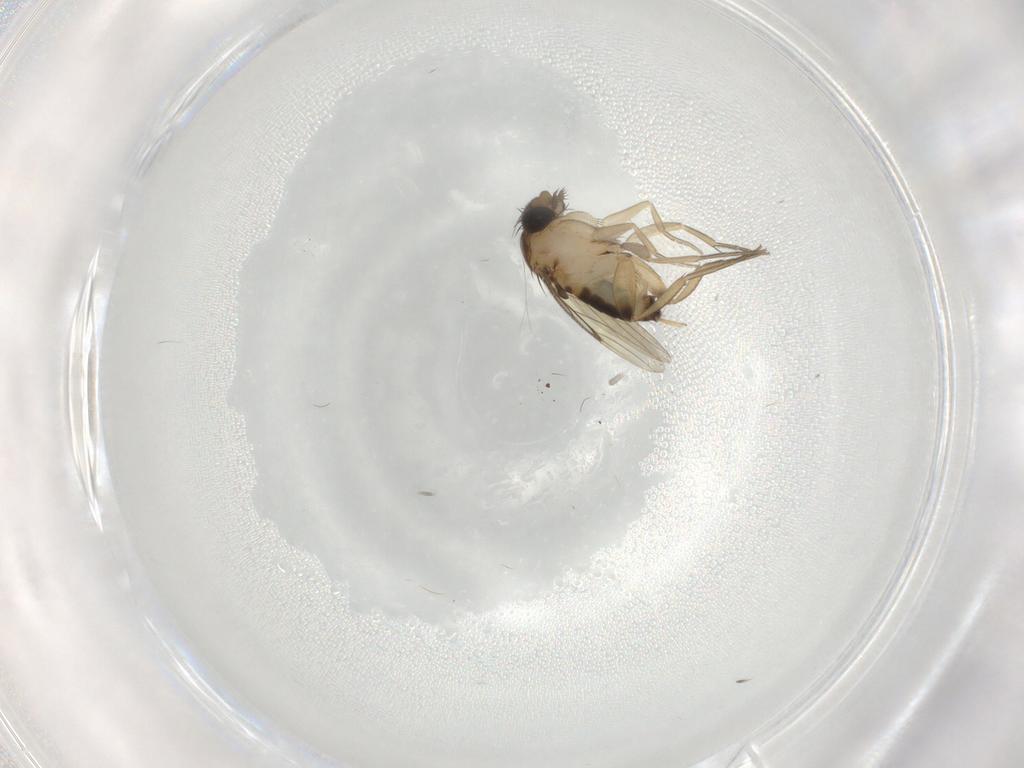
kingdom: Animalia
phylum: Arthropoda
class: Insecta
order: Diptera
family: Phoridae
